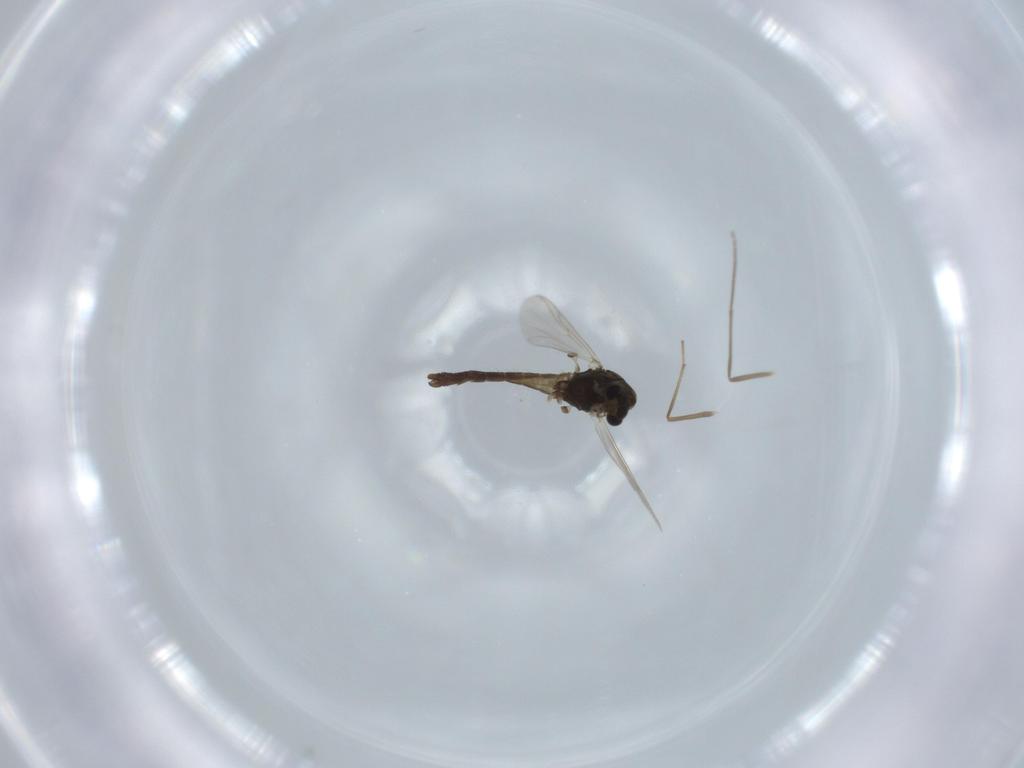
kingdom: Animalia
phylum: Arthropoda
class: Insecta
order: Diptera
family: Chironomidae
